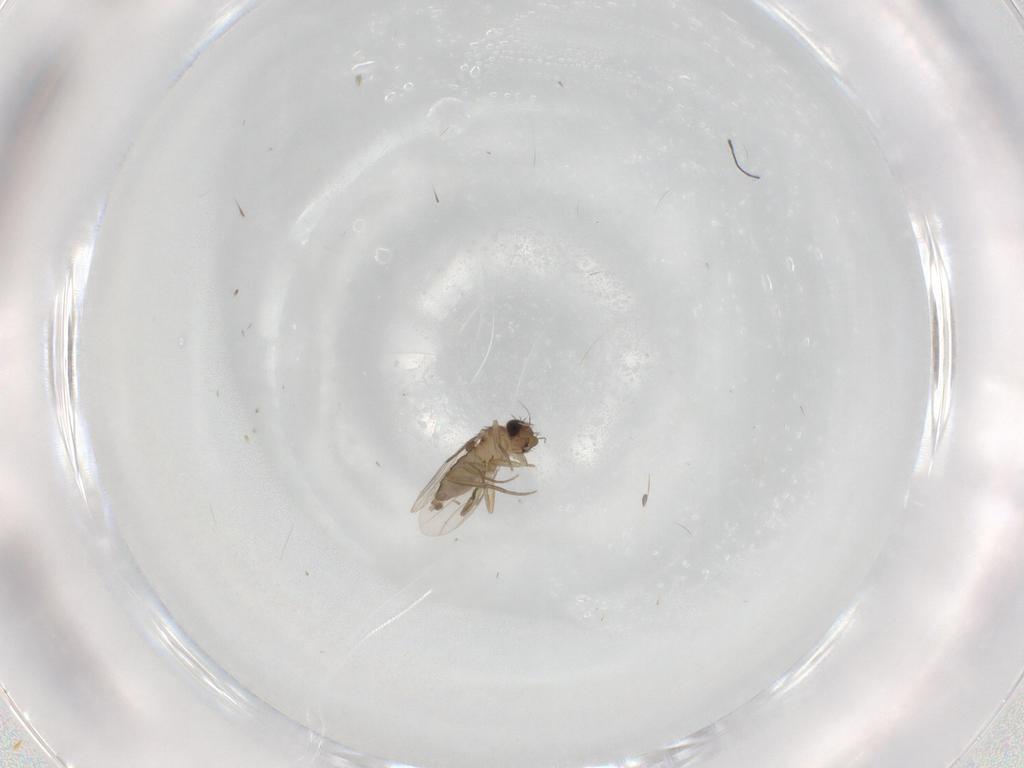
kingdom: Animalia
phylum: Arthropoda
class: Insecta
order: Diptera
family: Phoridae
